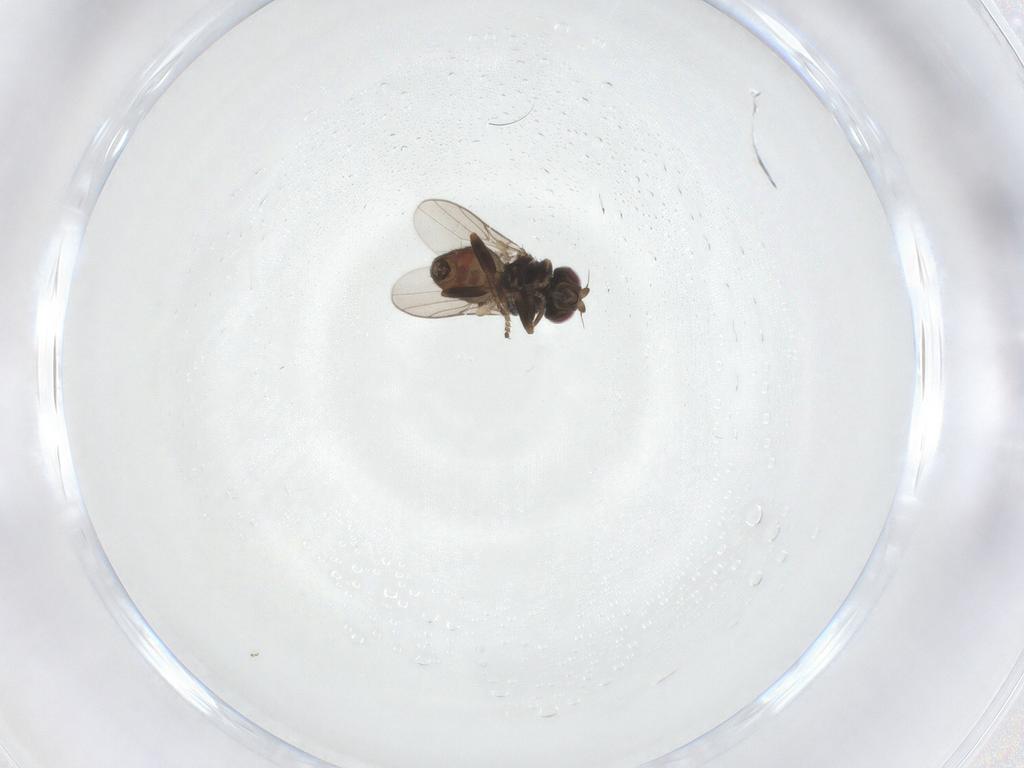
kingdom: Animalia
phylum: Arthropoda
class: Insecta
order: Diptera
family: Chloropidae
